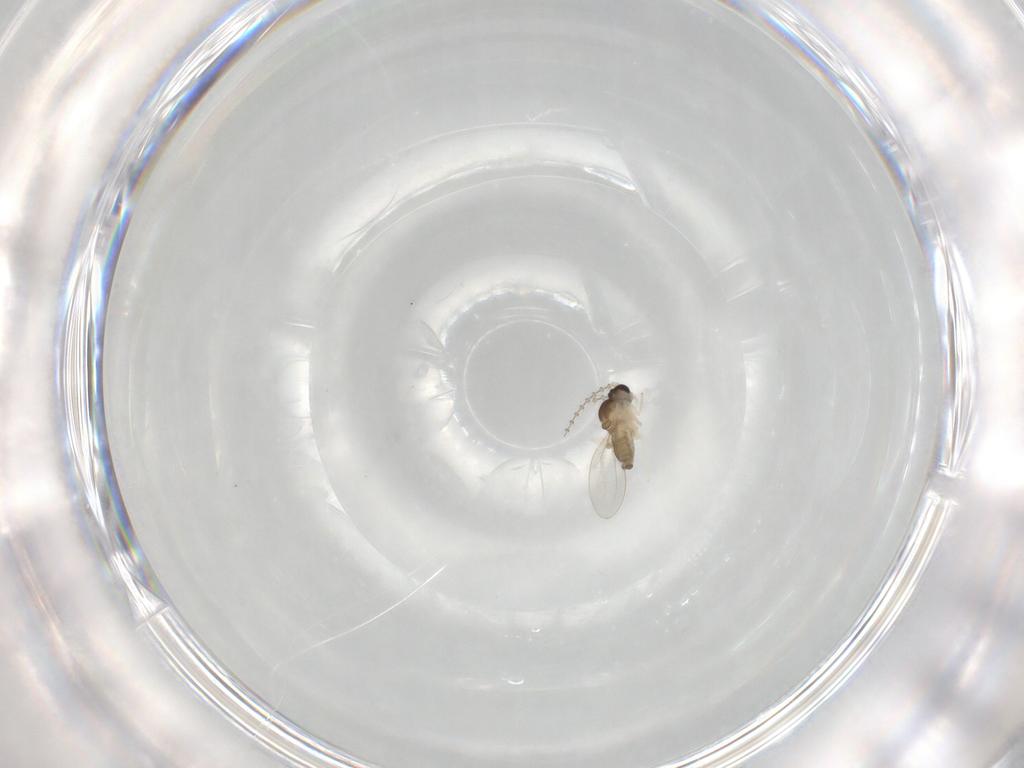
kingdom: Animalia
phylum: Arthropoda
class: Insecta
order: Diptera
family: Cecidomyiidae
